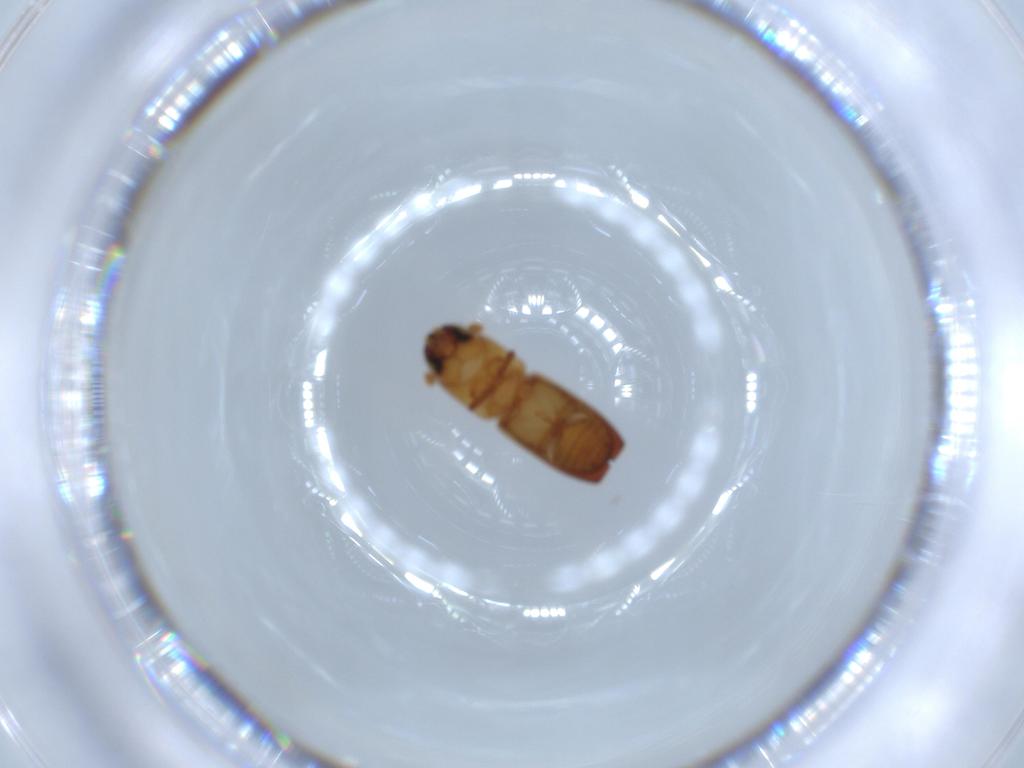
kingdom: Animalia
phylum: Arthropoda
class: Insecta
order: Coleoptera
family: Curculionidae
